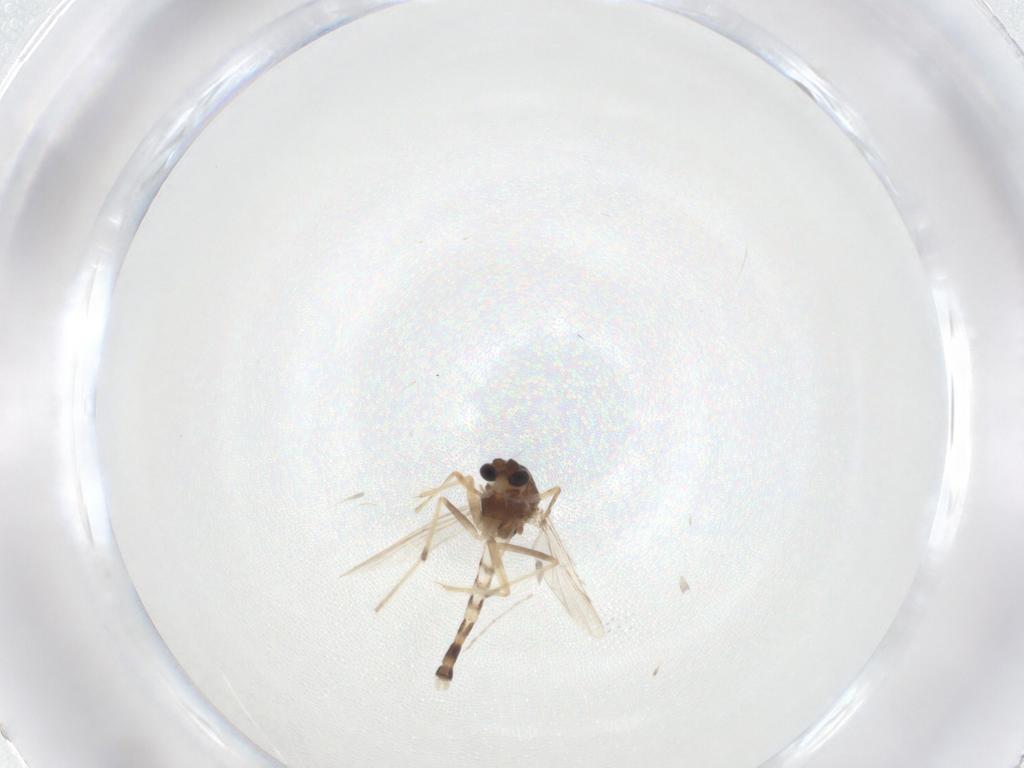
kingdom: Animalia
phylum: Arthropoda
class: Insecta
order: Diptera
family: Chironomidae
